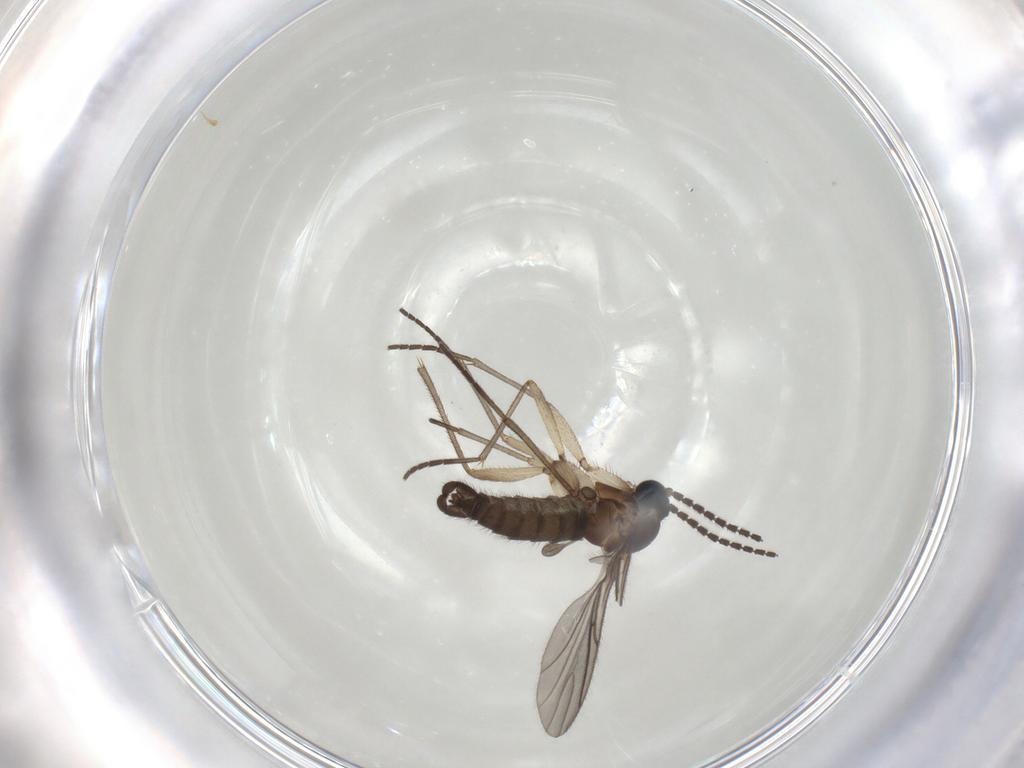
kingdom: Animalia
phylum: Arthropoda
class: Insecta
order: Diptera
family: Sciaridae
